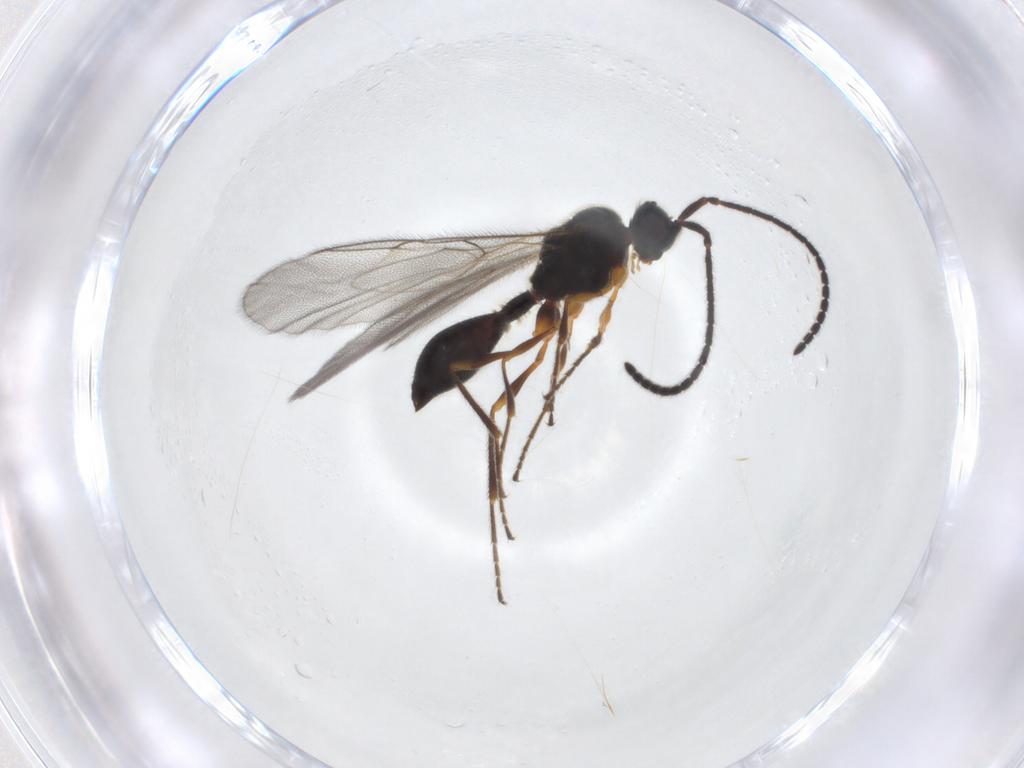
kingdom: Animalia
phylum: Arthropoda
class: Insecta
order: Hymenoptera
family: Diapriidae
